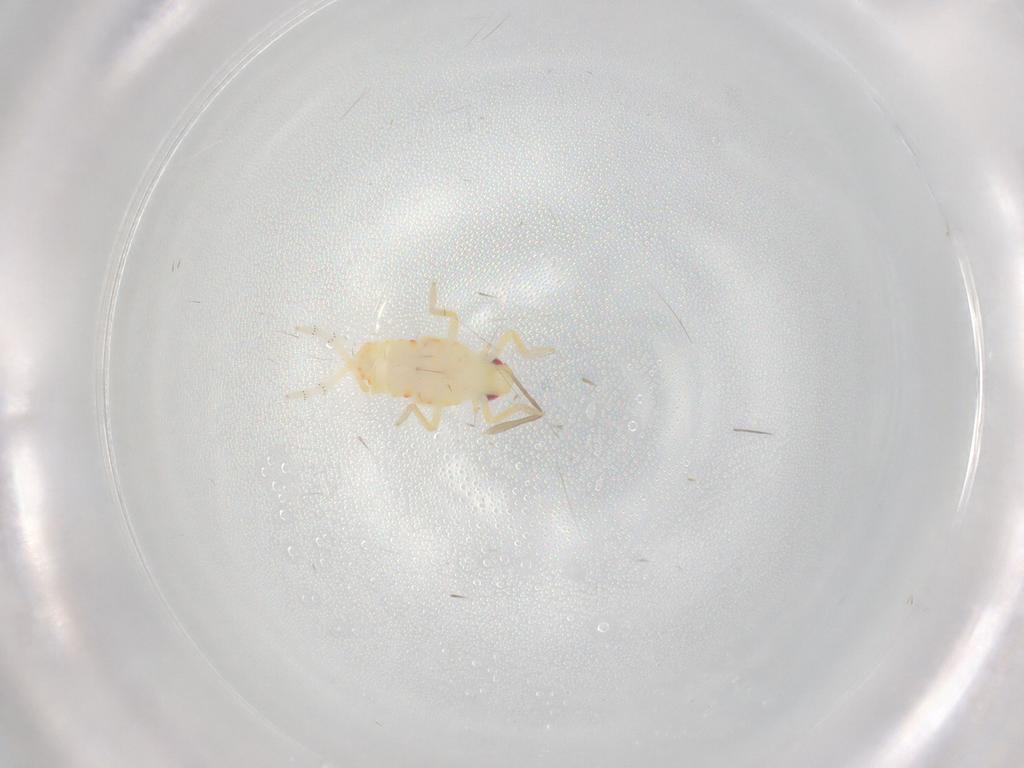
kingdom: Animalia
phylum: Arthropoda
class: Insecta
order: Hemiptera
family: Tropiduchidae
